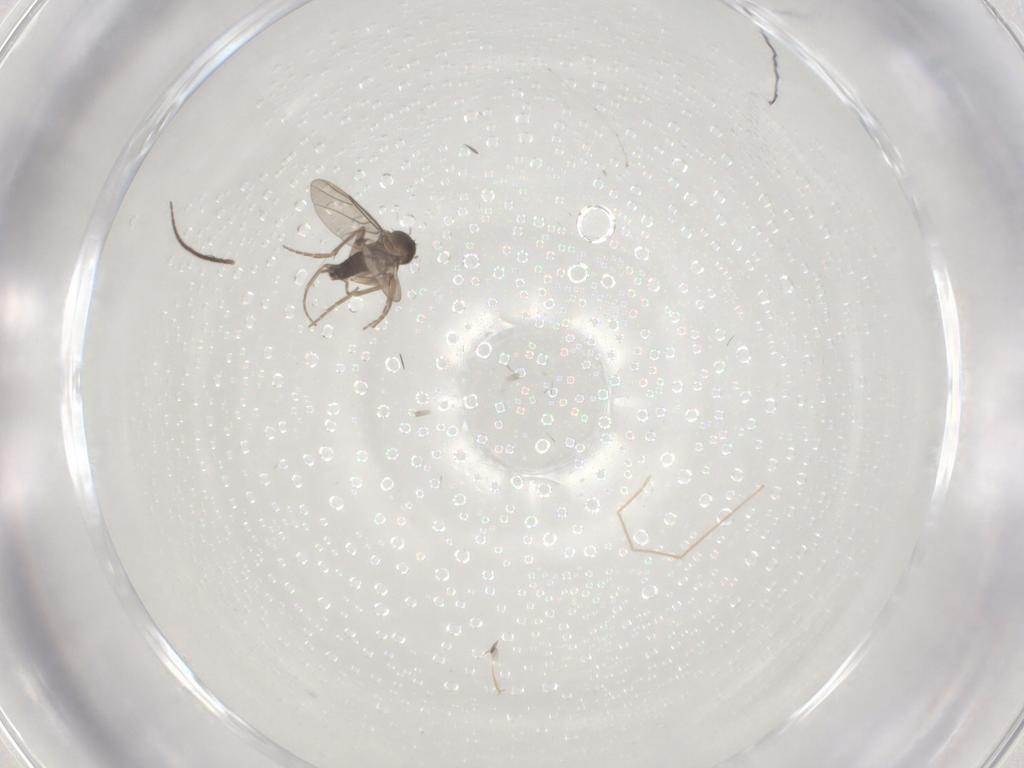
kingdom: Animalia
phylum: Arthropoda
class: Insecta
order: Diptera
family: Sciaridae
